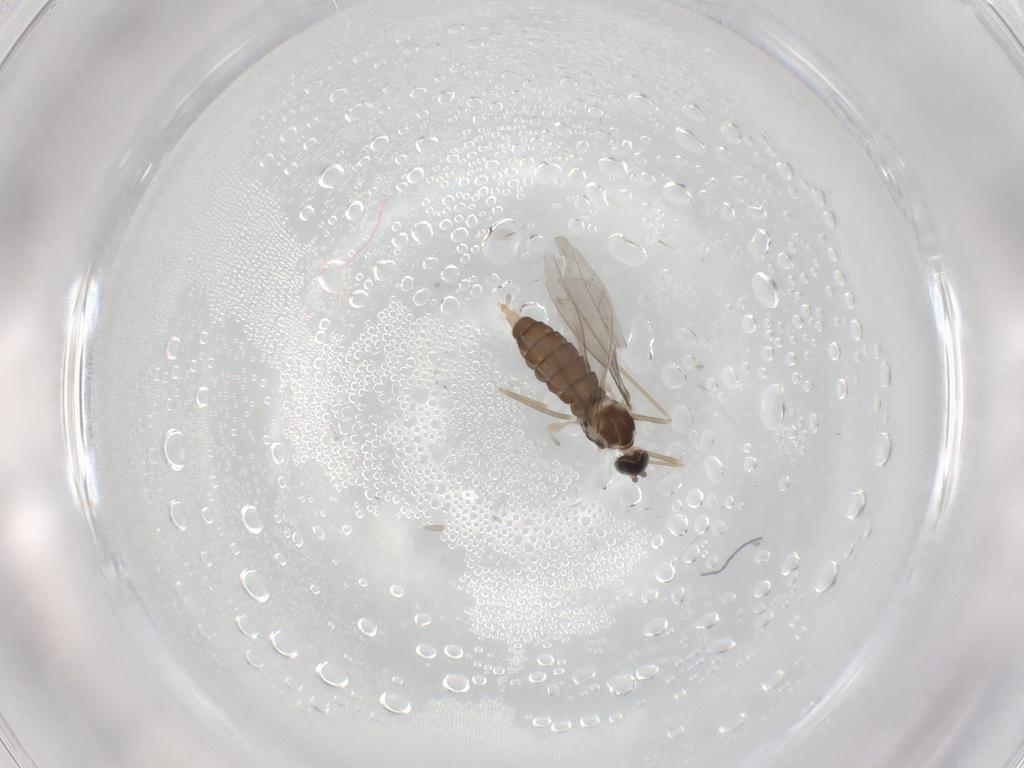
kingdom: Animalia
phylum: Arthropoda
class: Insecta
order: Diptera
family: Cecidomyiidae
